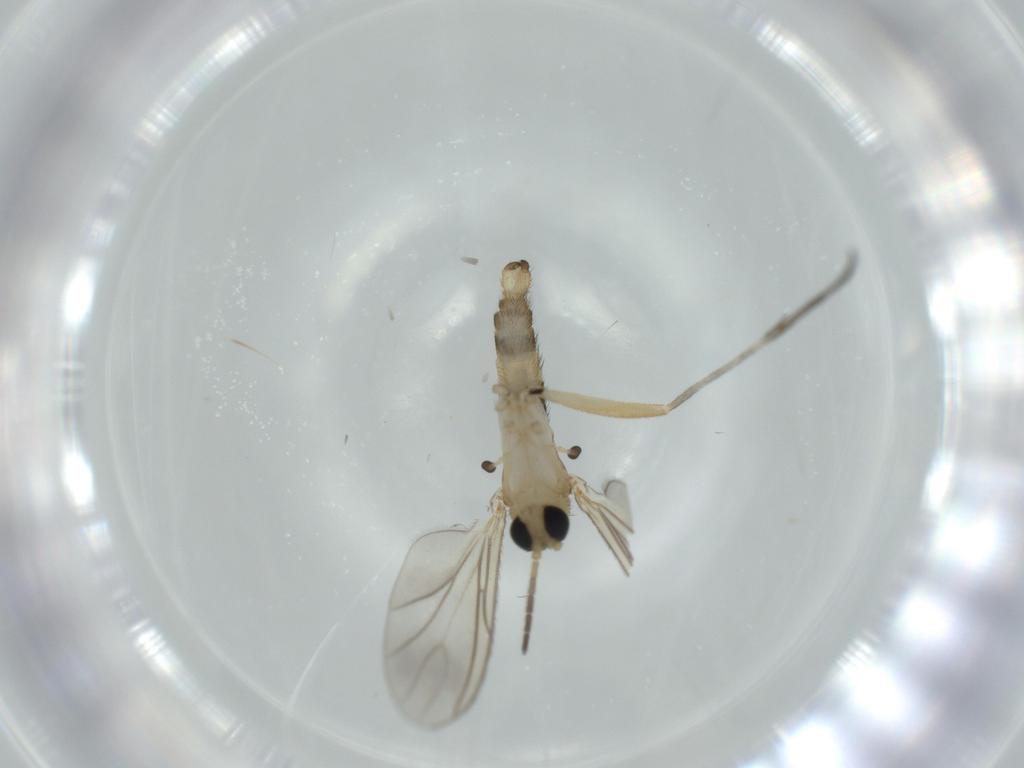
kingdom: Animalia
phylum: Arthropoda
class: Insecta
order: Diptera
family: Sciaridae
